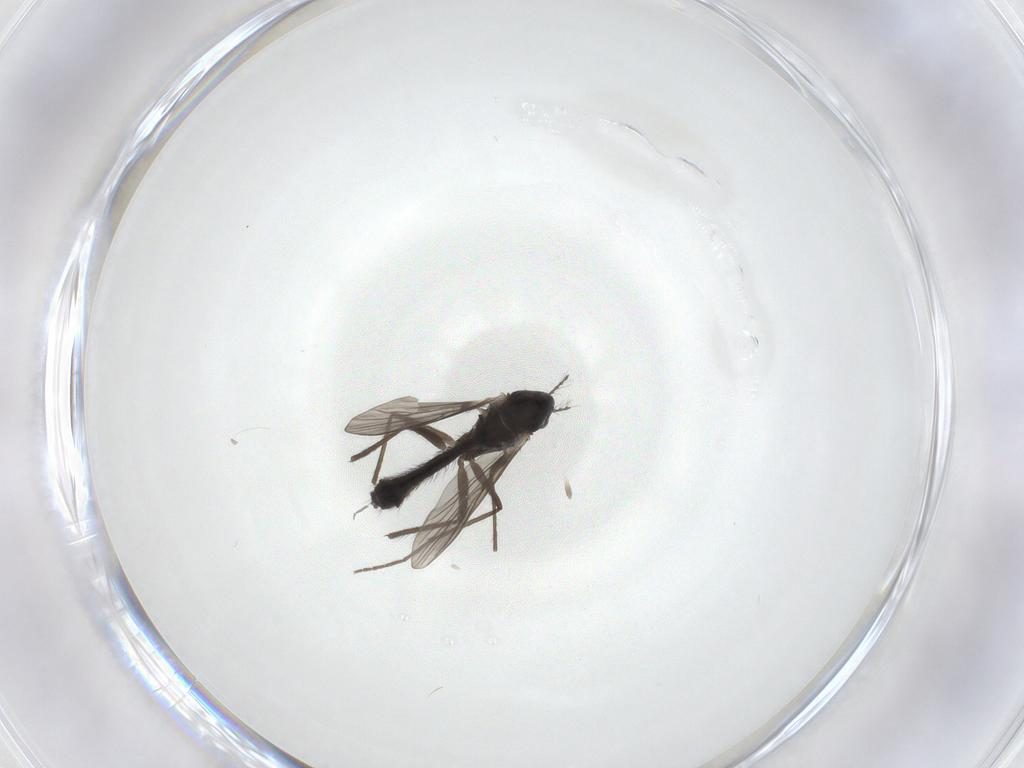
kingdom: Animalia
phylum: Arthropoda
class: Insecta
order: Diptera
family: Chironomidae
